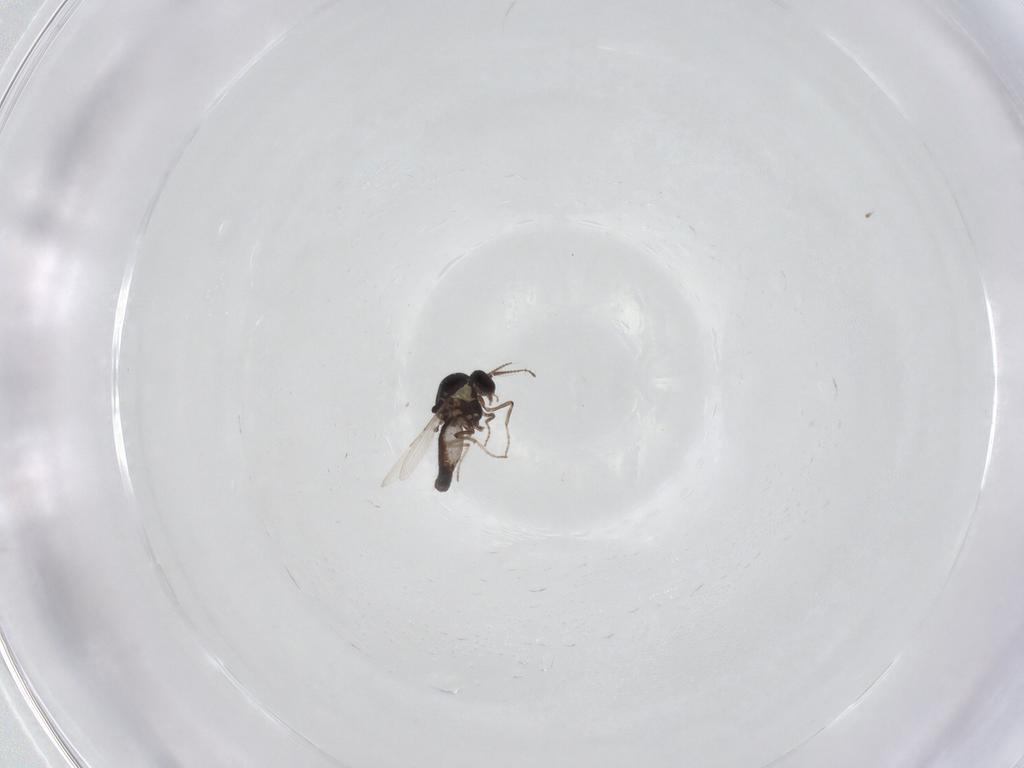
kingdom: Animalia
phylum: Arthropoda
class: Insecta
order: Diptera
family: Ceratopogonidae
